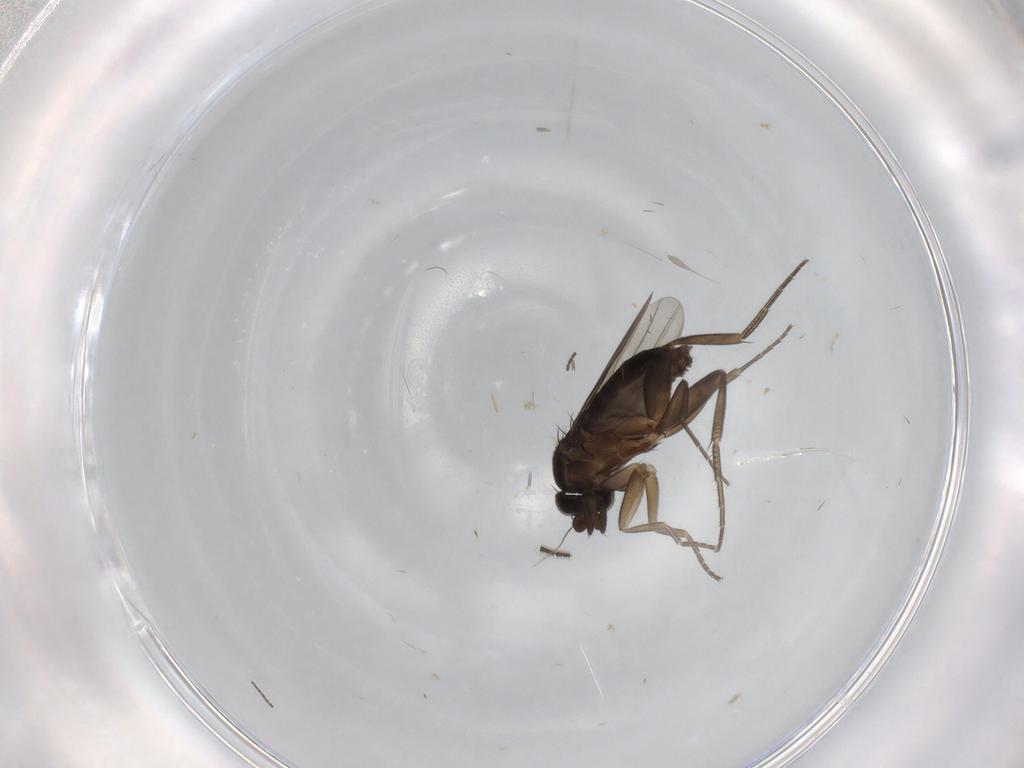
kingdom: Animalia
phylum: Arthropoda
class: Insecta
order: Diptera
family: Phoridae
